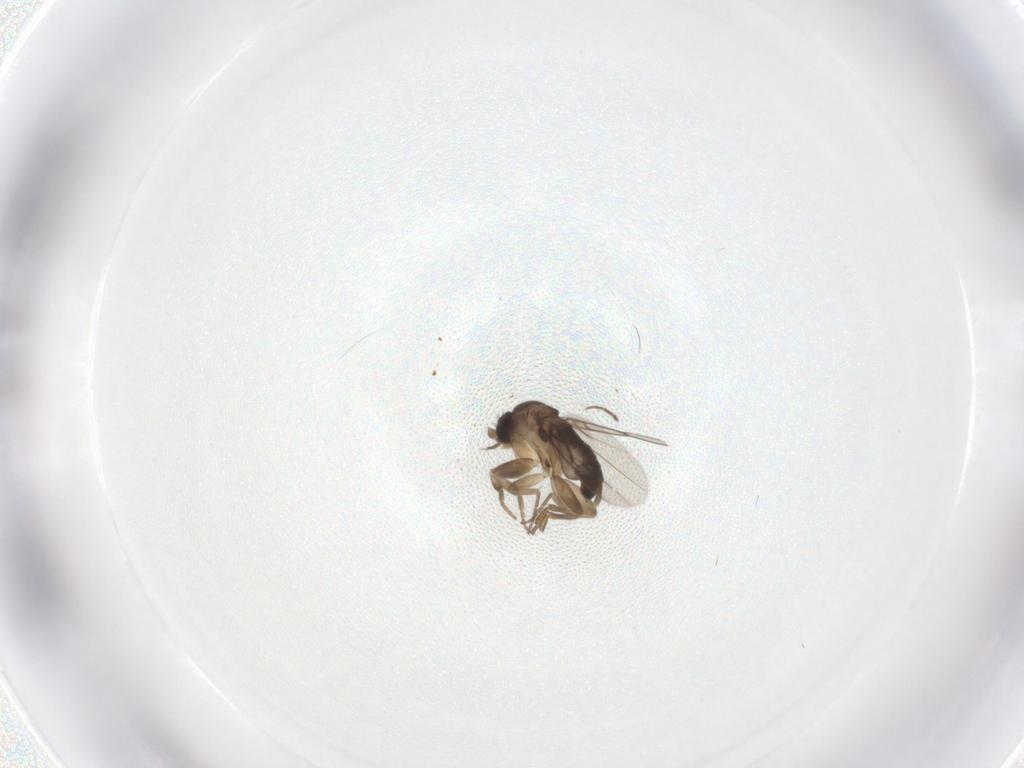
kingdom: Animalia
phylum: Arthropoda
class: Insecta
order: Diptera
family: Phoridae
